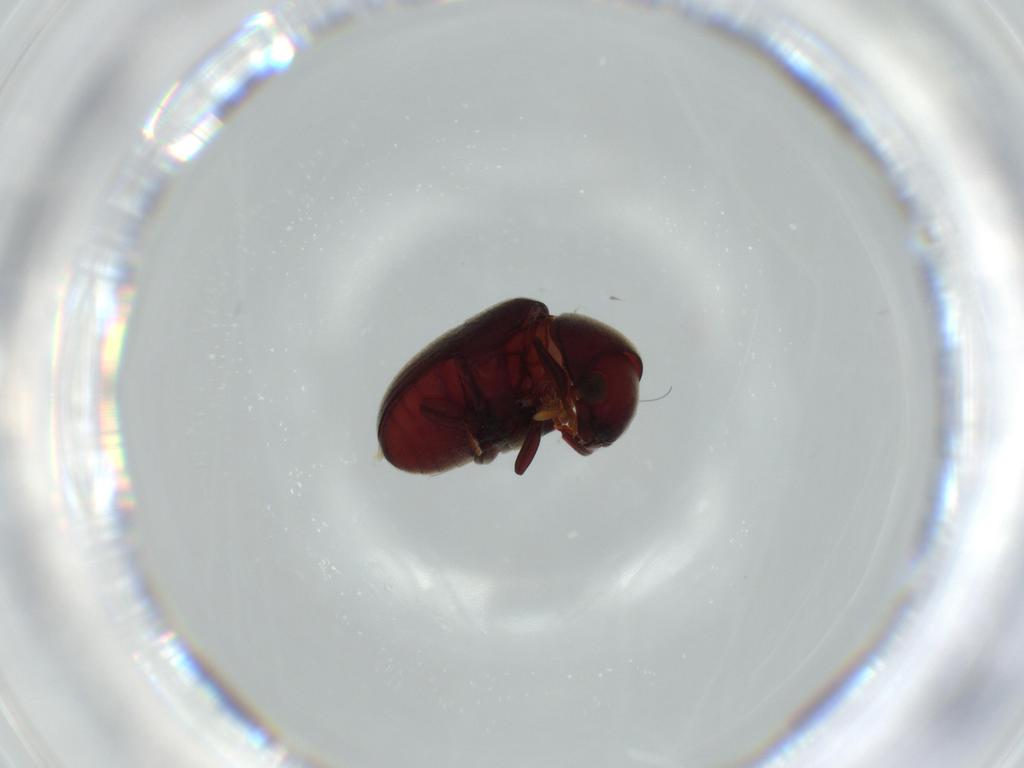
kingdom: Animalia
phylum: Arthropoda
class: Insecta
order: Coleoptera
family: Ptinidae
